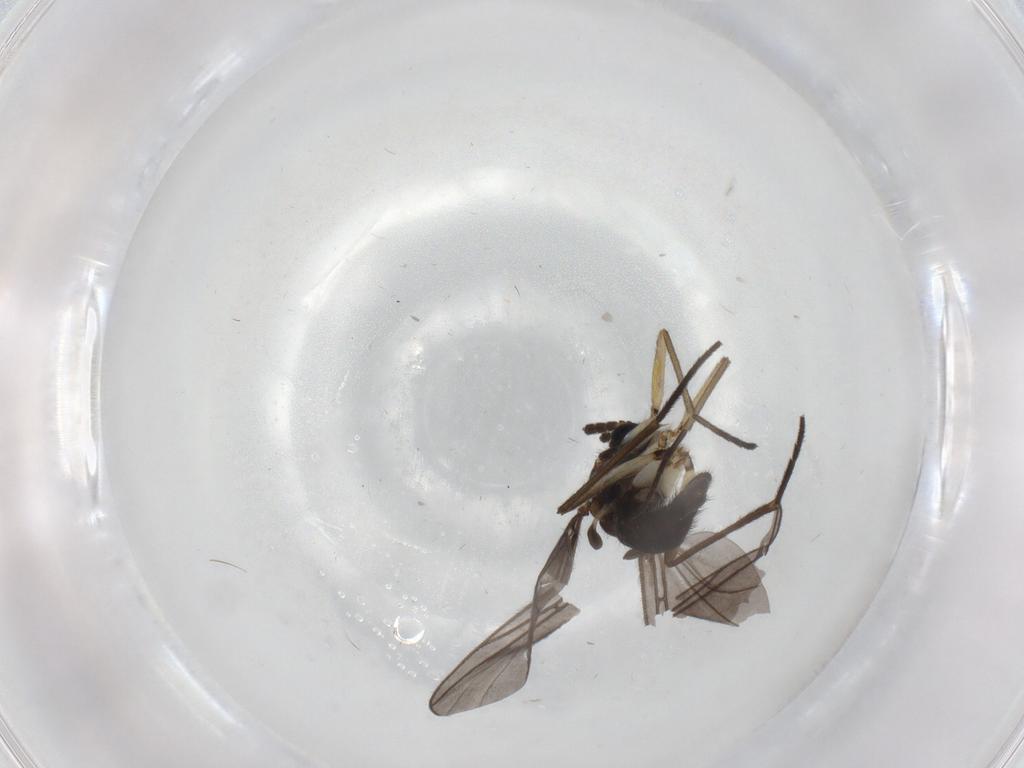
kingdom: Animalia
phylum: Arthropoda
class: Insecta
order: Diptera
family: Sciaridae
